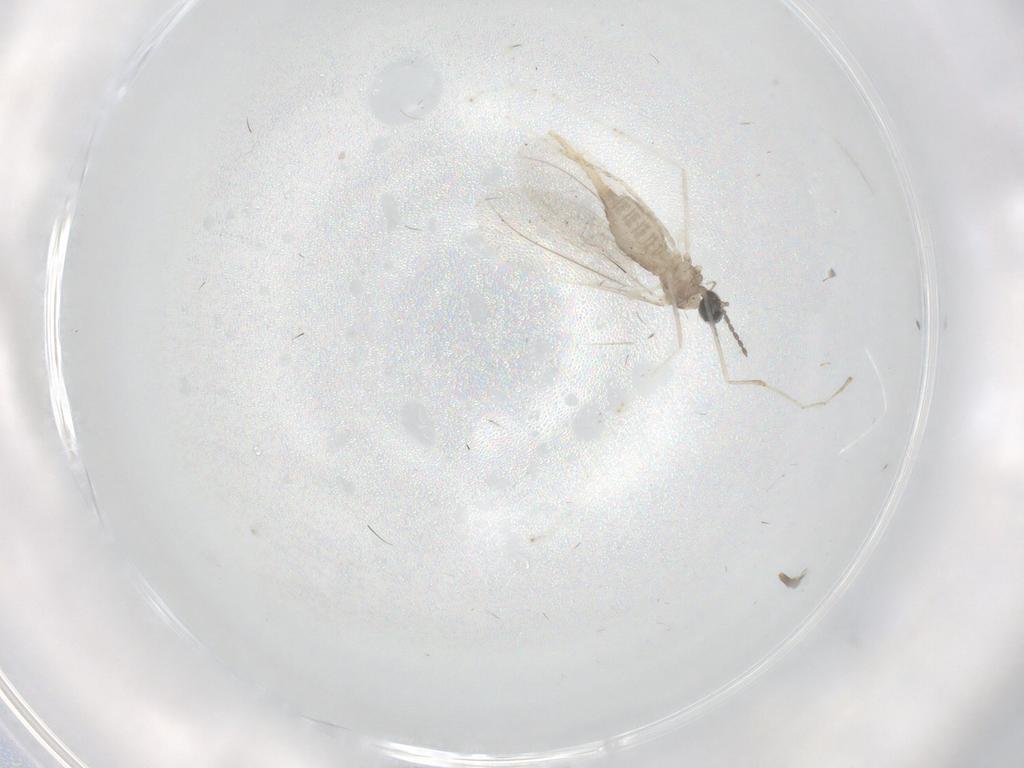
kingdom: Animalia
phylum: Arthropoda
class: Insecta
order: Diptera
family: Cecidomyiidae
